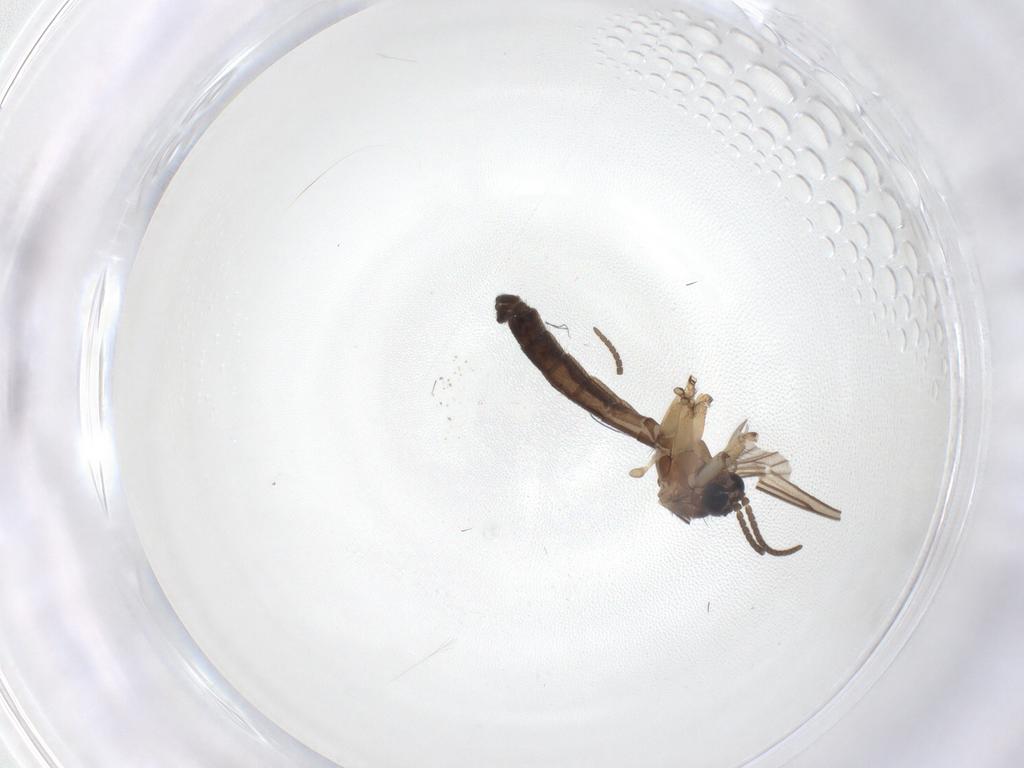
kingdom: Animalia
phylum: Arthropoda
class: Insecta
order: Diptera
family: Keroplatidae
